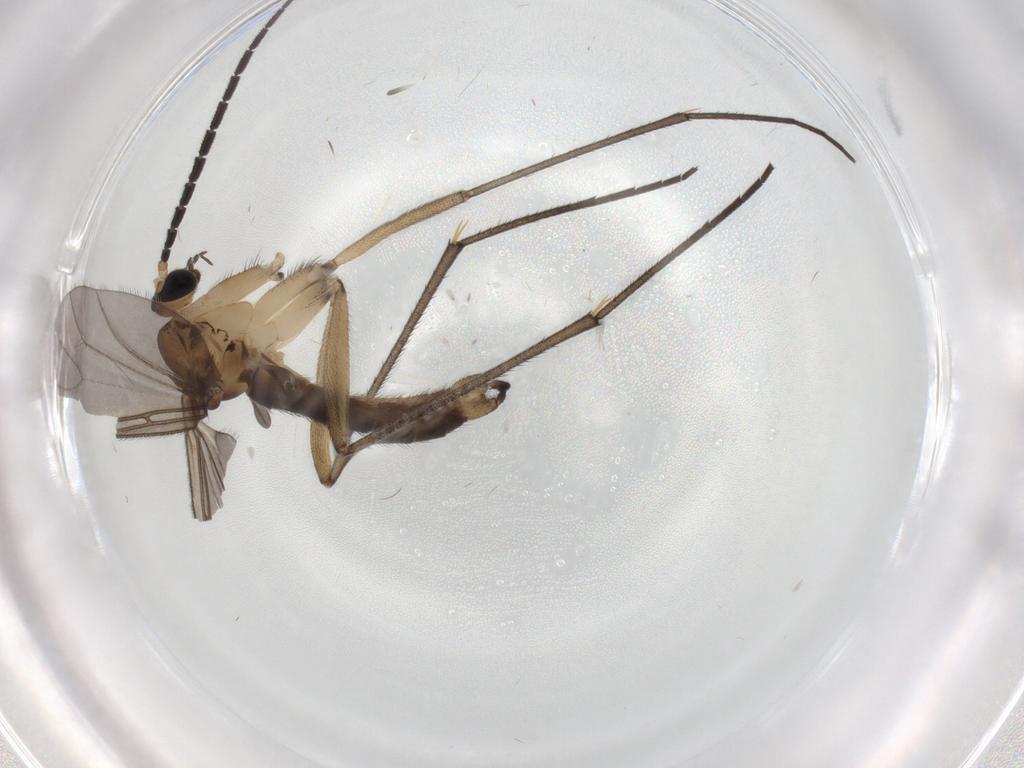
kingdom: Animalia
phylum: Arthropoda
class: Insecta
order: Diptera
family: Sciaridae
